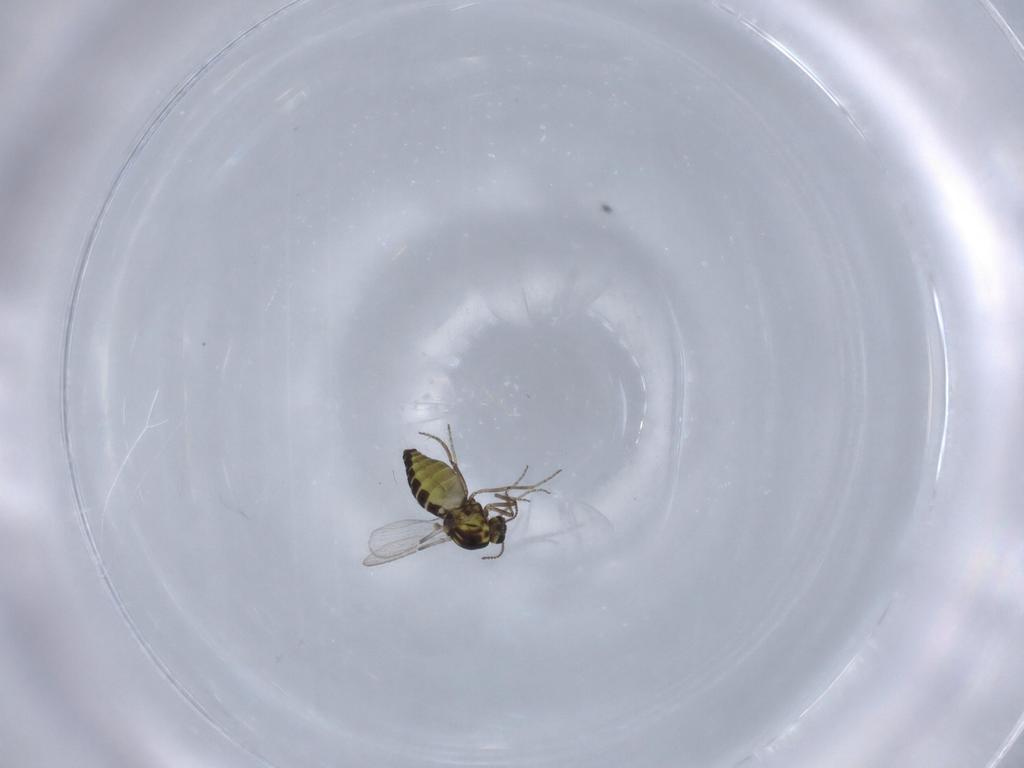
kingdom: Animalia
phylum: Arthropoda
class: Insecta
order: Diptera
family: Ceratopogonidae
